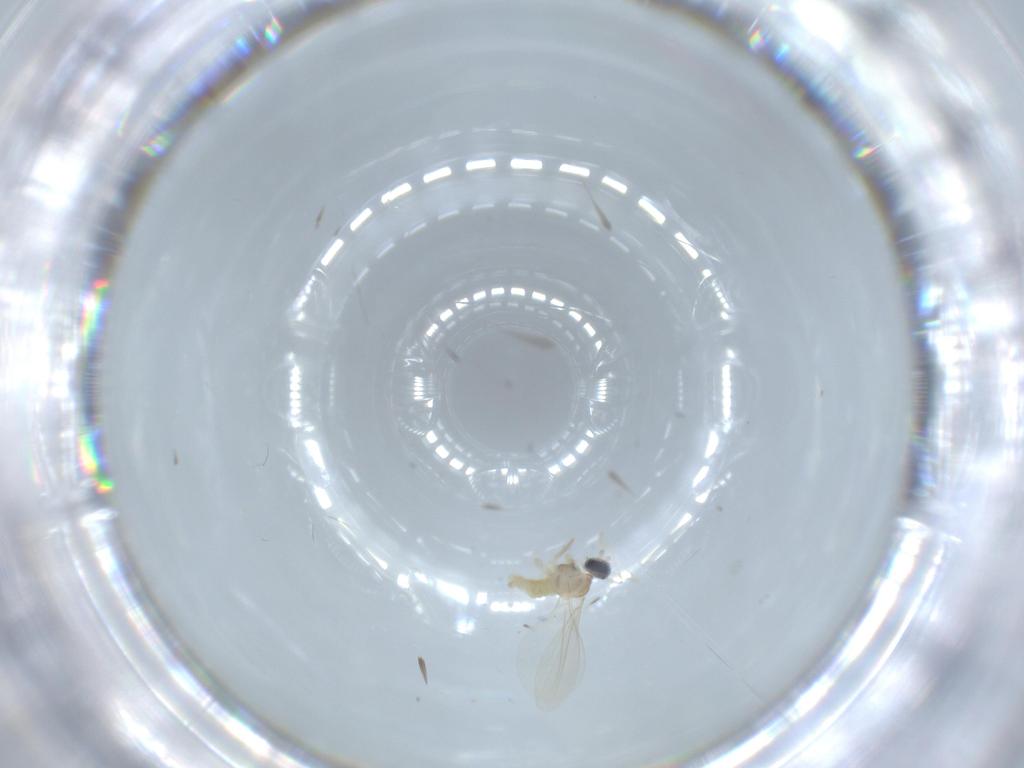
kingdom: Animalia
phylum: Arthropoda
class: Insecta
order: Diptera
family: Cecidomyiidae
